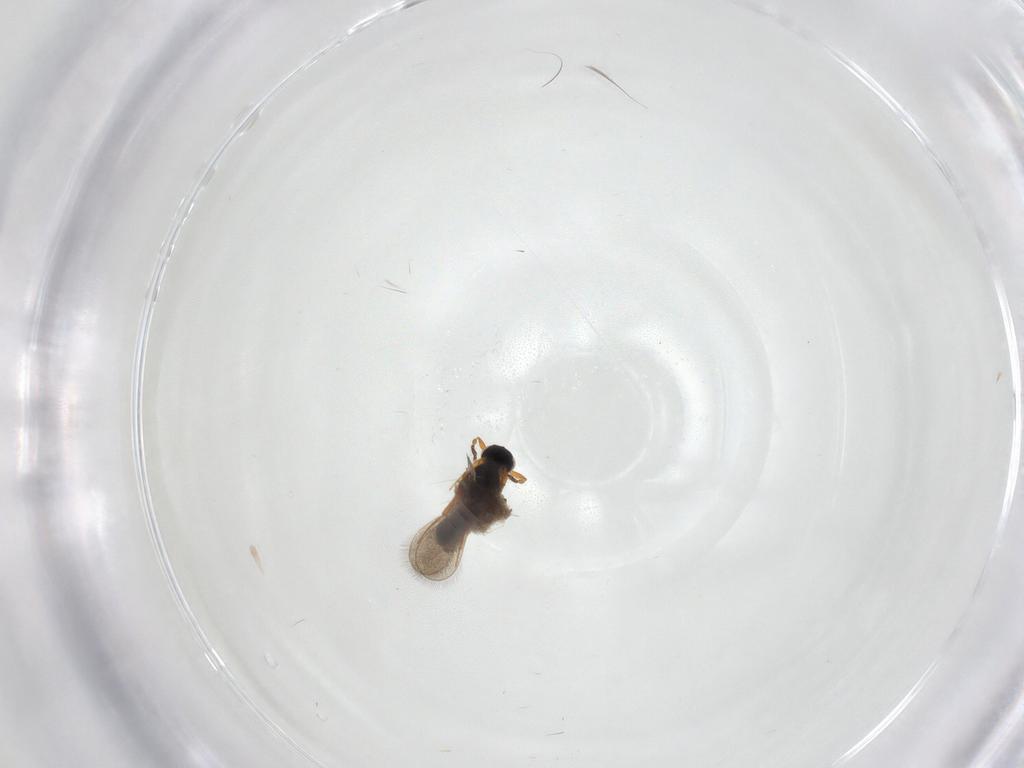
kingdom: Animalia
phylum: Arthropoda
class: Insecta
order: Hymenoptera
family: Platygastridae
